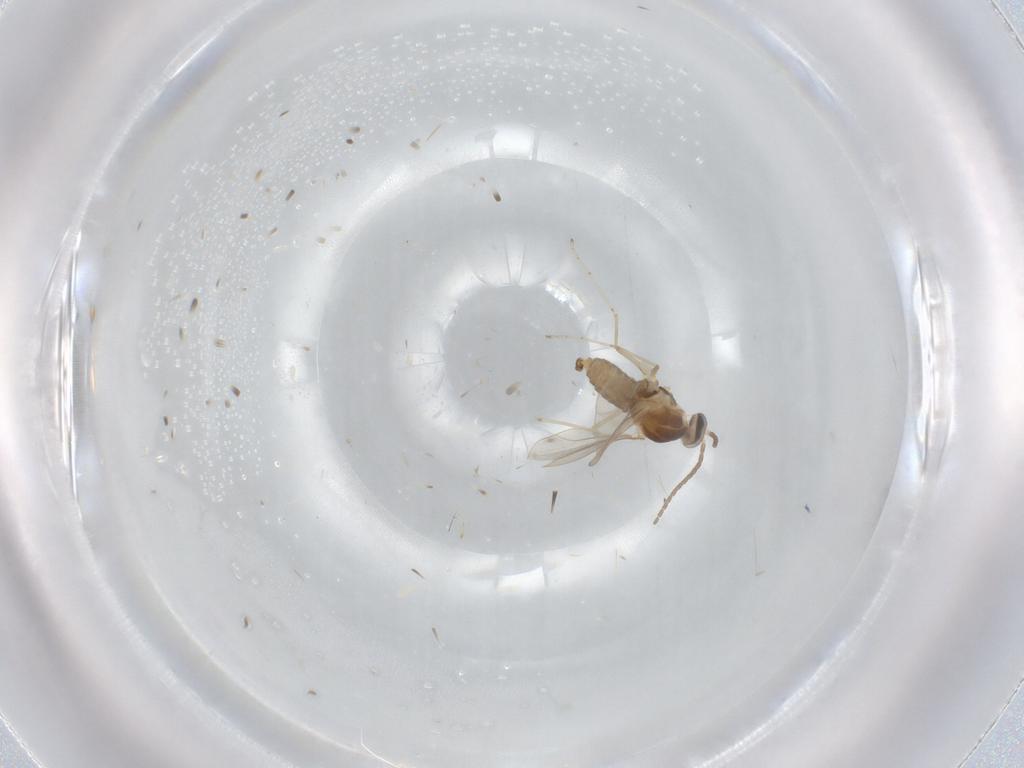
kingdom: Animalia
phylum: Arthropoda
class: Insecta
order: Diptera
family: Cecidomyiidae
